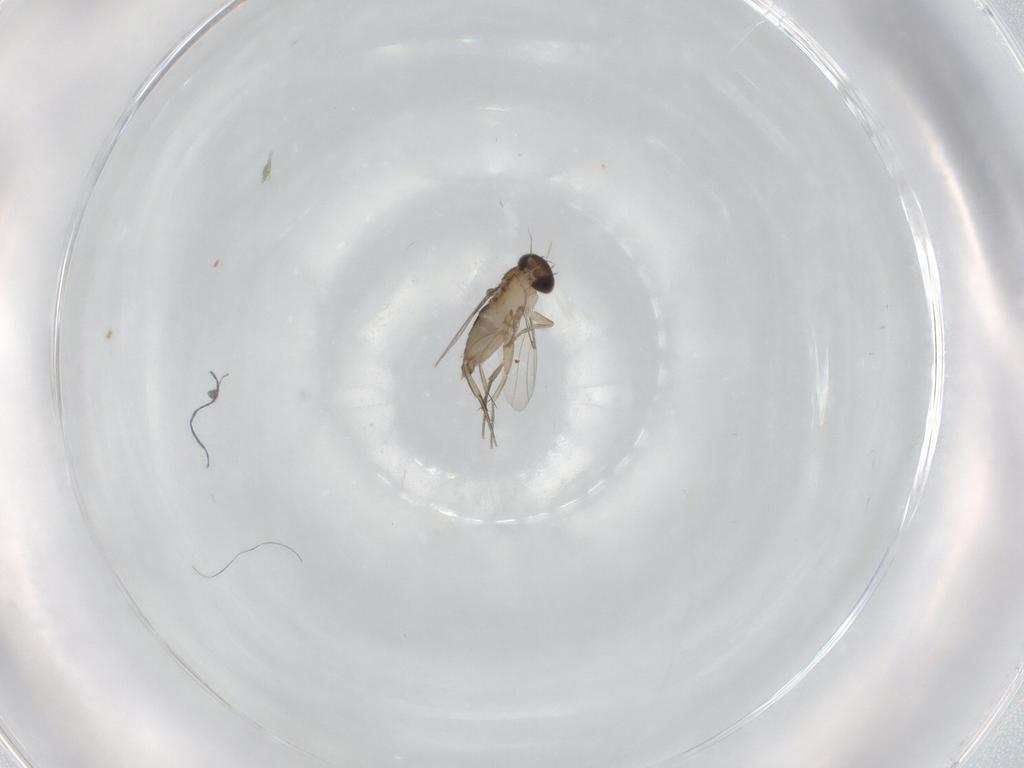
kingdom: Animalia
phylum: Arthropoda
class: Insecta
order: Diptera
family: Phoridae
